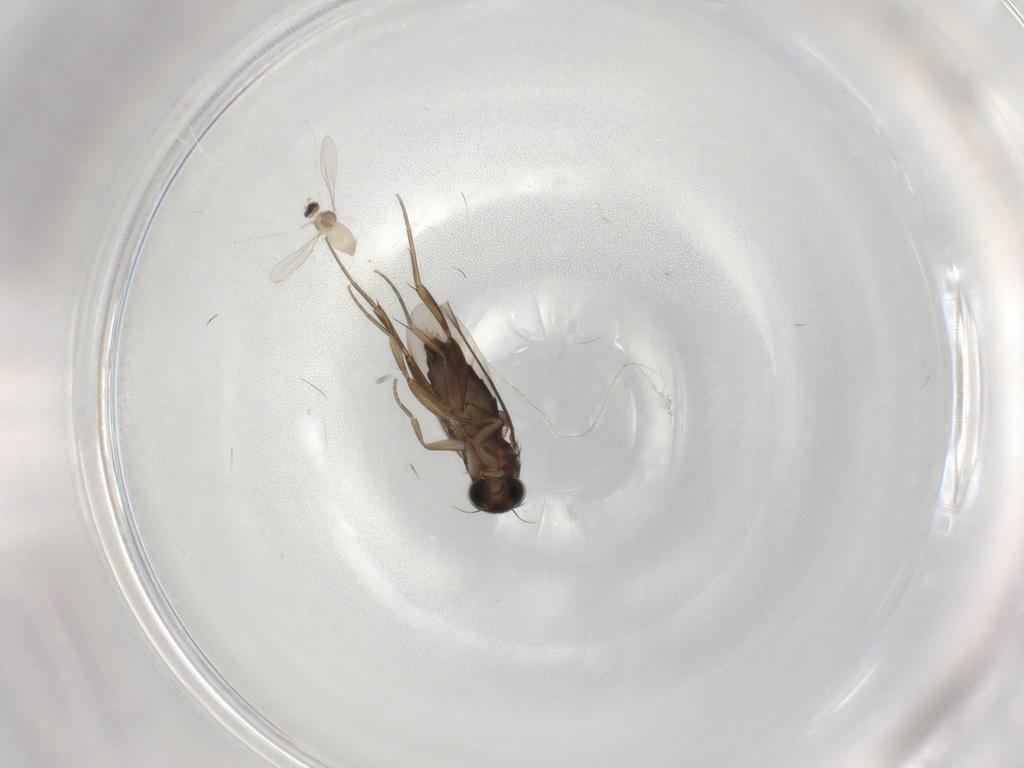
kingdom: Animalia
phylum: Arthropoda
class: Insecta
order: Diptera
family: Phoridae
